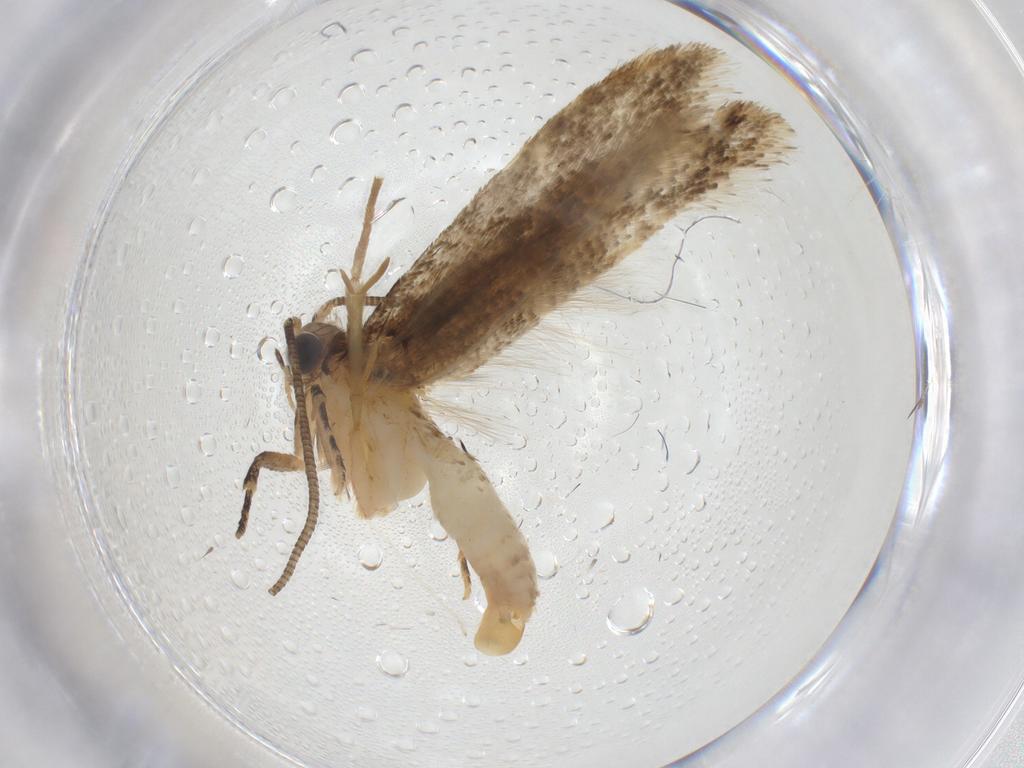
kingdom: Animalia
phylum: Arthropoda
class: Insecta
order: Lepidoptera
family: Tineidae
